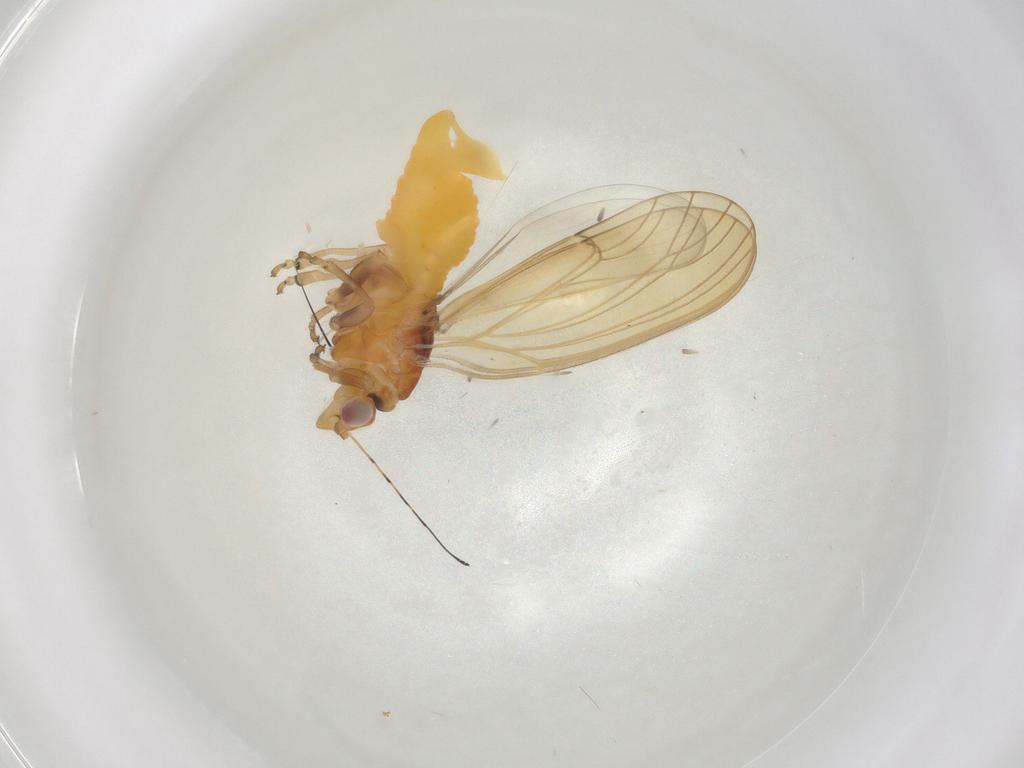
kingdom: Animalia
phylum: Arthropoda
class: Insecta
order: Hemiptera
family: Psylloidea_incertae_sedis
